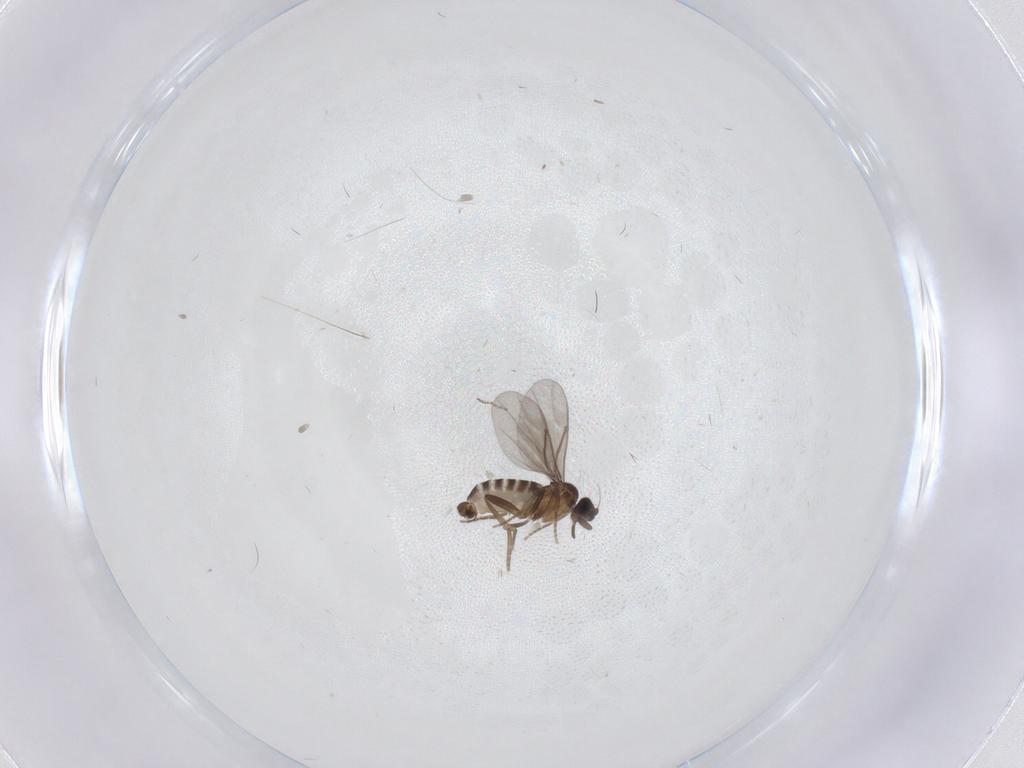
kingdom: Animalia
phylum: Arthropoda
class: Insecta
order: Diptera
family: Cecidomyiidae
